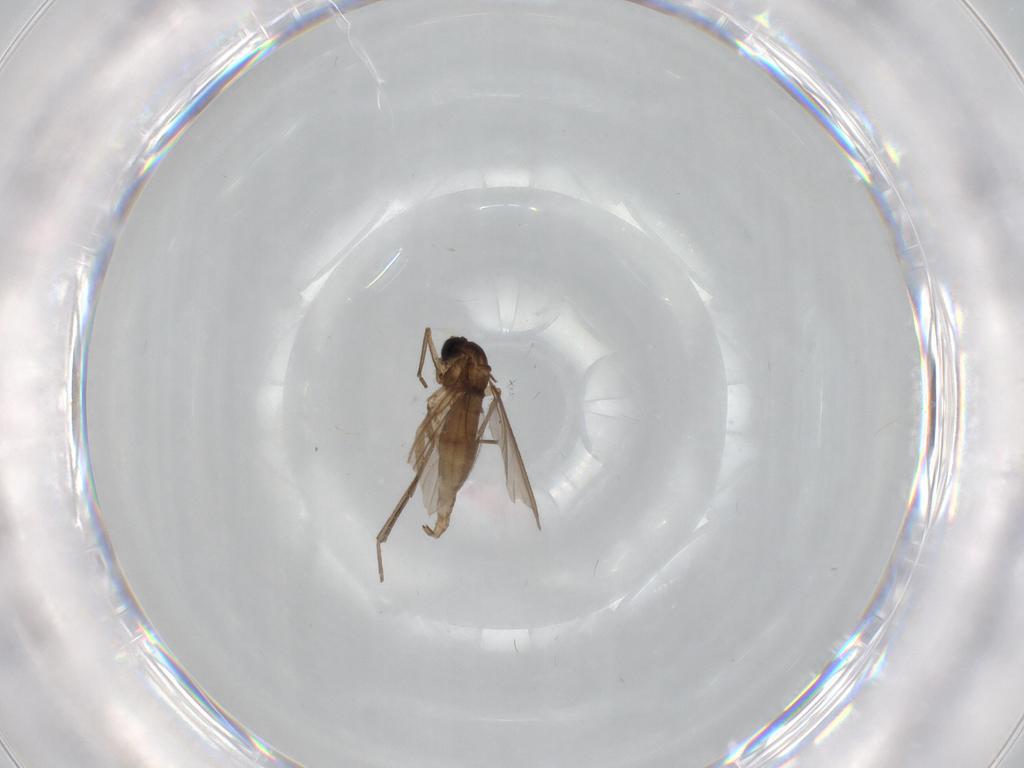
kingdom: Animalia
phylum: Arthropoda
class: Insecta
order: Diptera
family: Sciaridae
